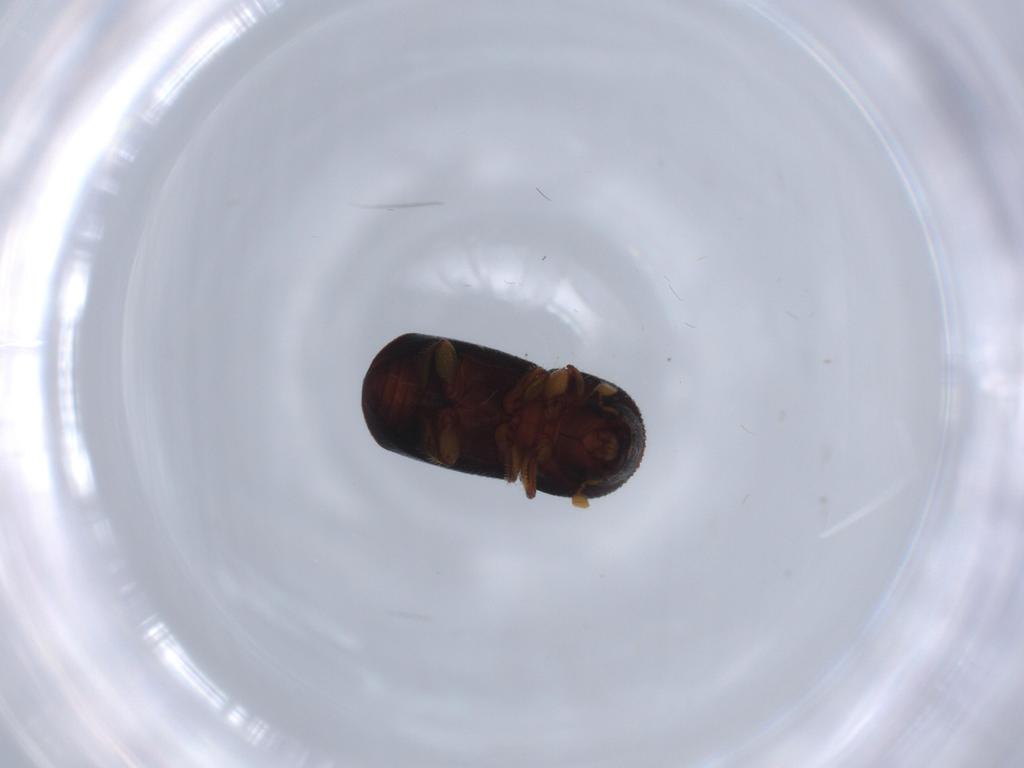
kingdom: Animalia
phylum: Arthropoda
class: Insecta
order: Coleoptera
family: Curculionidae
